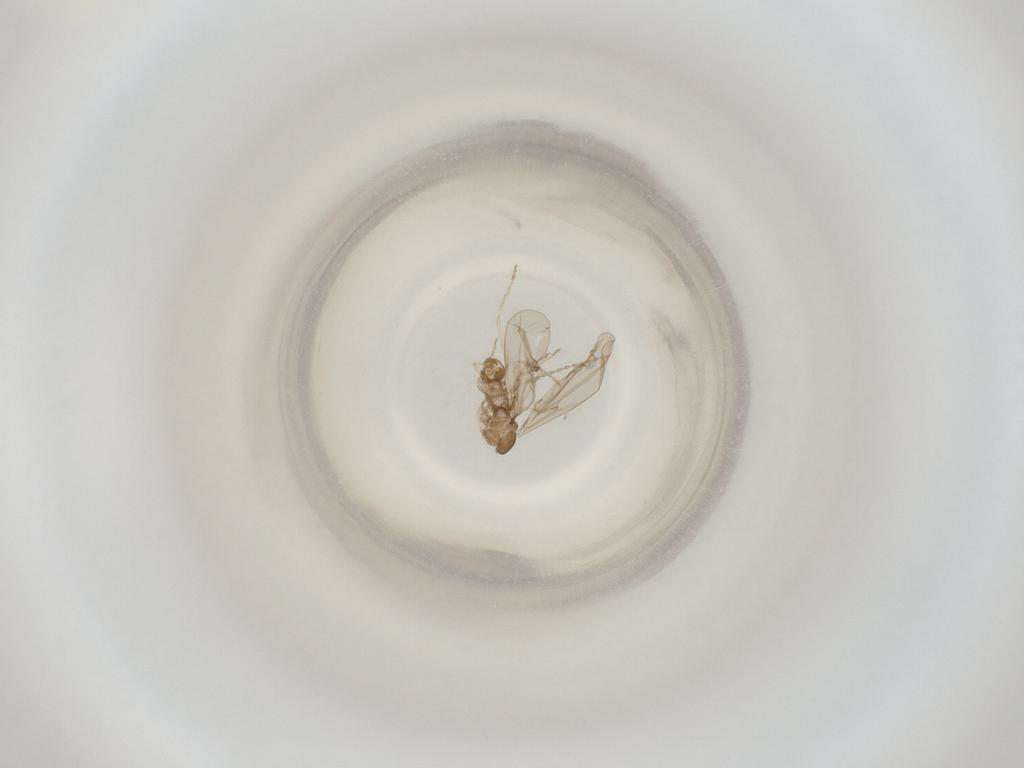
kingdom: Animalia
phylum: Arthropoda
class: Insecta
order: Diptera
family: Cecidomyiidae
